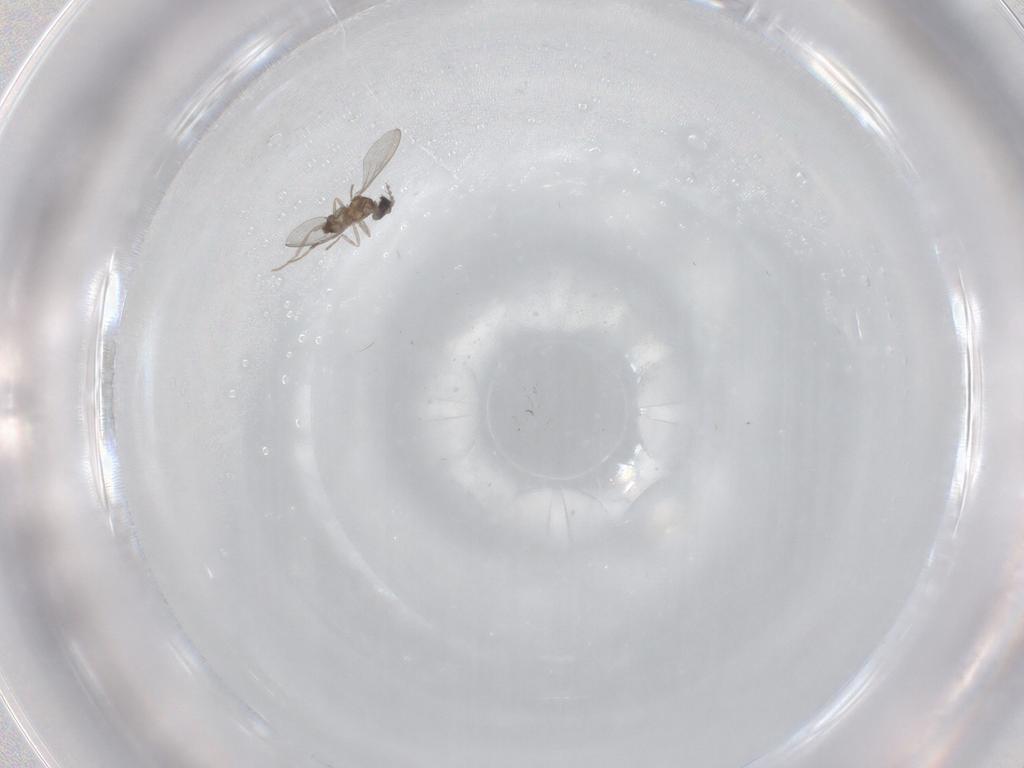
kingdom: Animalia
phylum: Arthropoda
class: Insecta
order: Diptera
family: Cecidomyiidae
